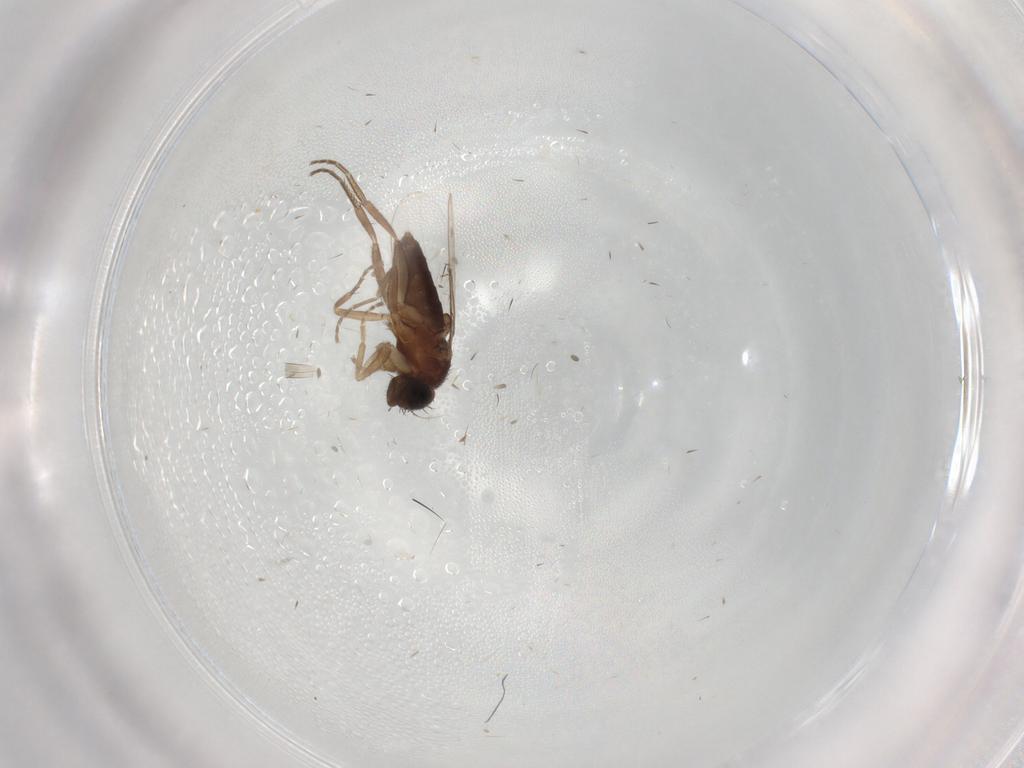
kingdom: Animalia
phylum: Arthropoda
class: Insecta
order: Diptera
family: Phoridae
